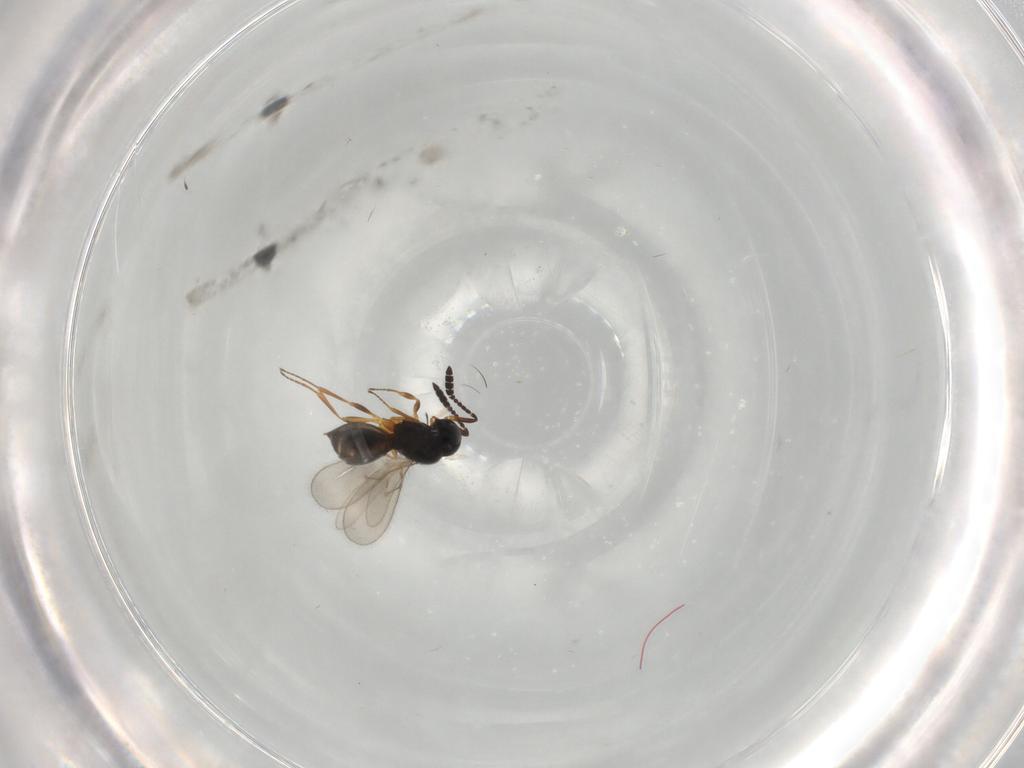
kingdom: Animalia
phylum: Arthropoda
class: Insecta
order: Hymenoptera
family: Scelionidae
